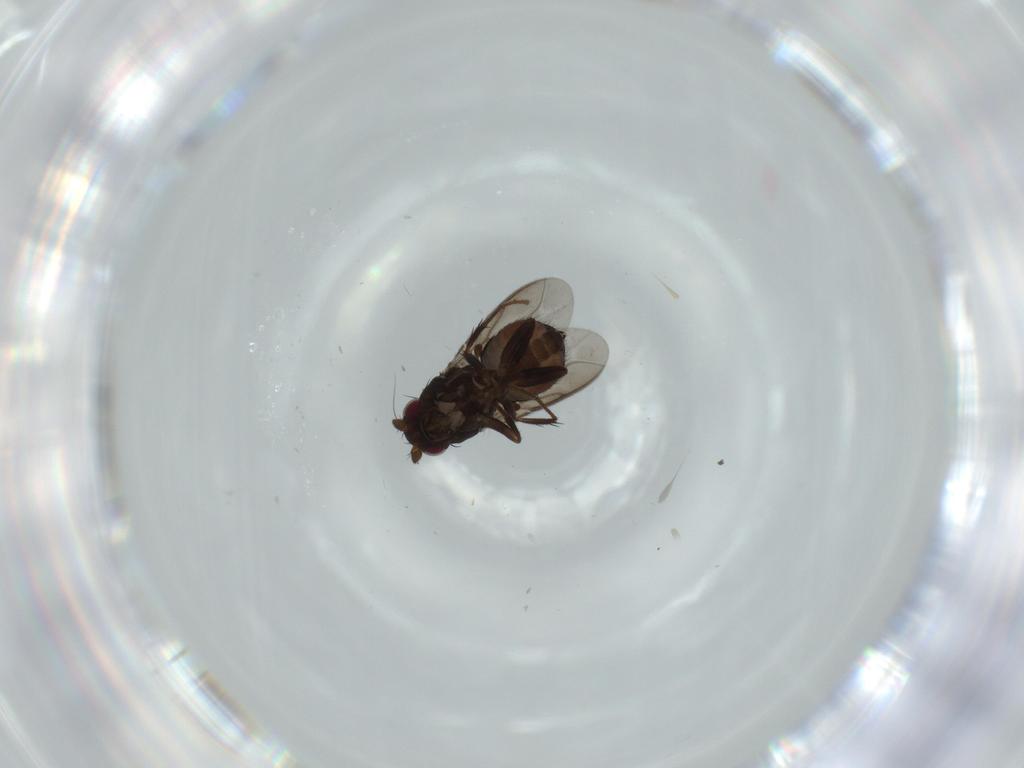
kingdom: Animalia
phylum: Arthropoda
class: Insecta
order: Diptera
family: Sphaeroceridae
